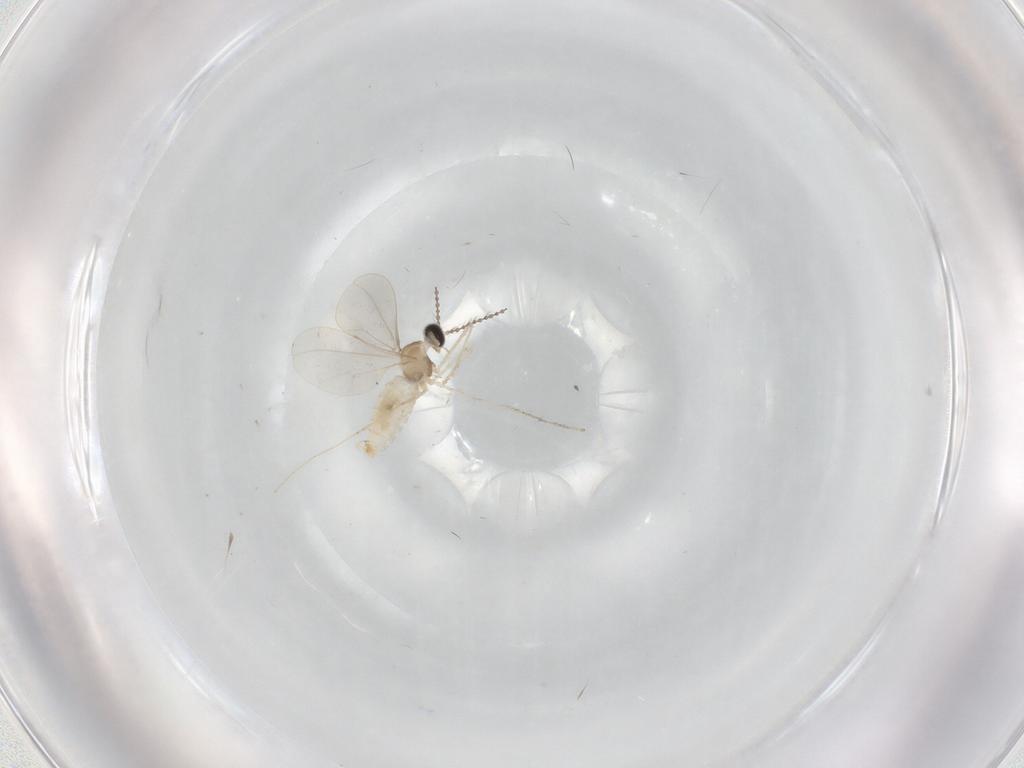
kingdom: Animalia
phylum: Arthropoda
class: Insecta
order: Diptera
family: Cecidomyiidae
